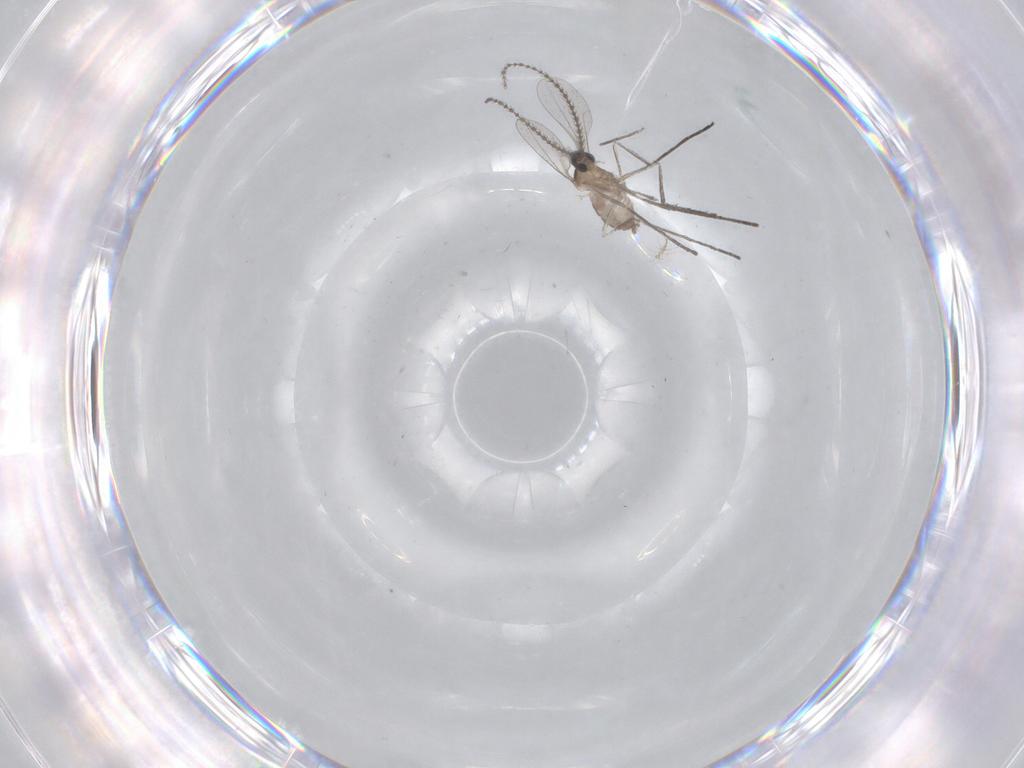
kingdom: Animalia
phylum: Arthropoda
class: Insecta
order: Diptera
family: Cecidomyiidae
